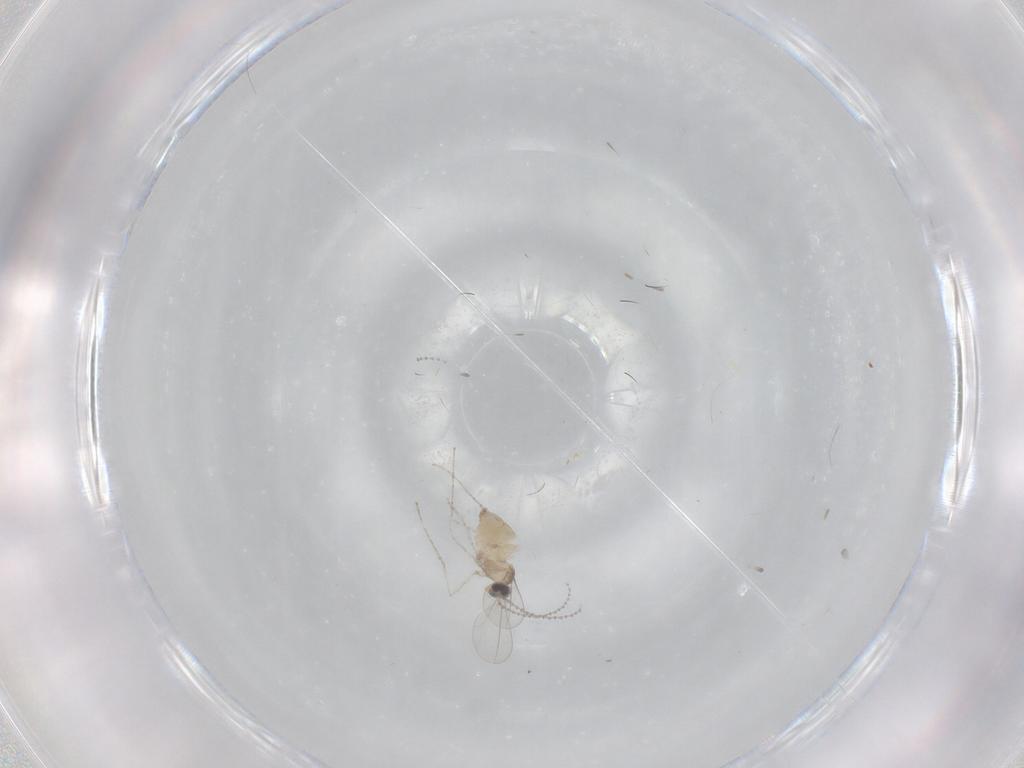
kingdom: Animalia
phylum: Arthropoda
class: Insecta
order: Diptera
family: Cecidomyiidae
